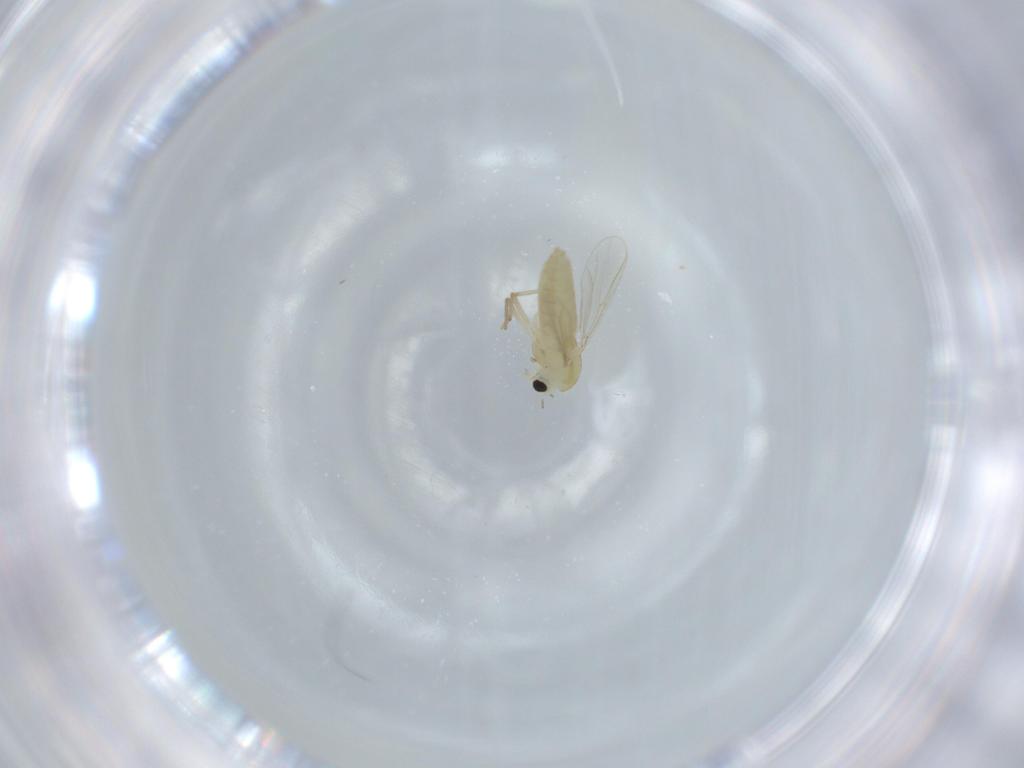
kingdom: Animalia
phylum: Arthropoda
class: Insecta
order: Diptera
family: Chironomidae
